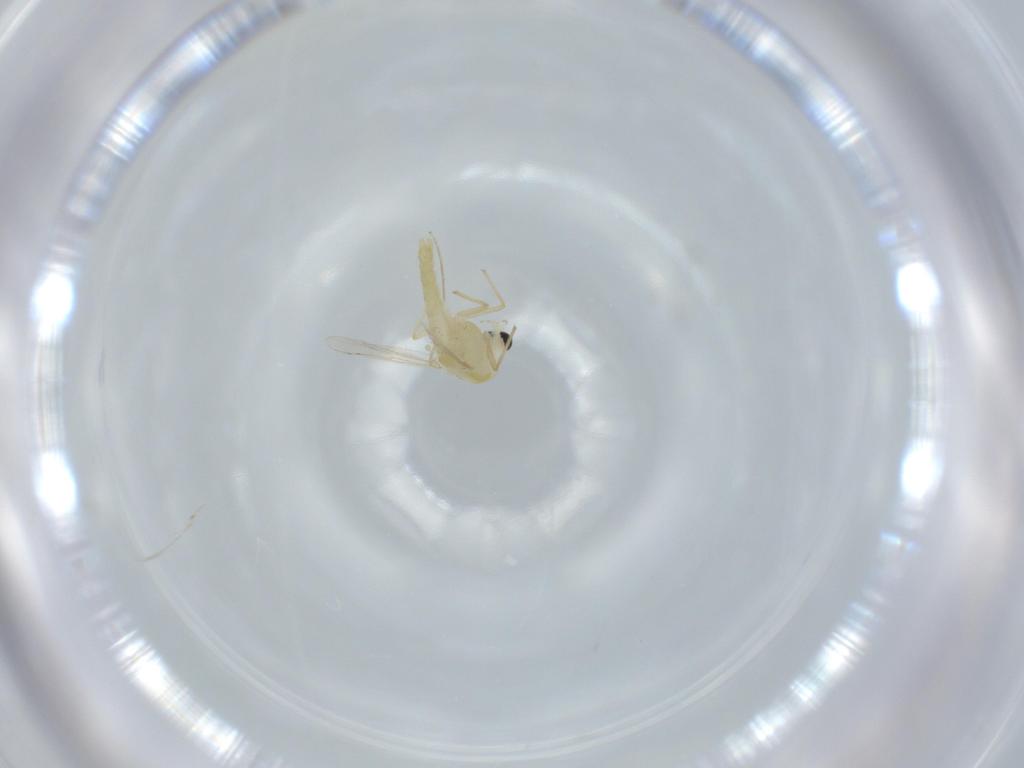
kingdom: Animalia
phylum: Arthropoda
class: Insecta
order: Diptera
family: Chironomidae
